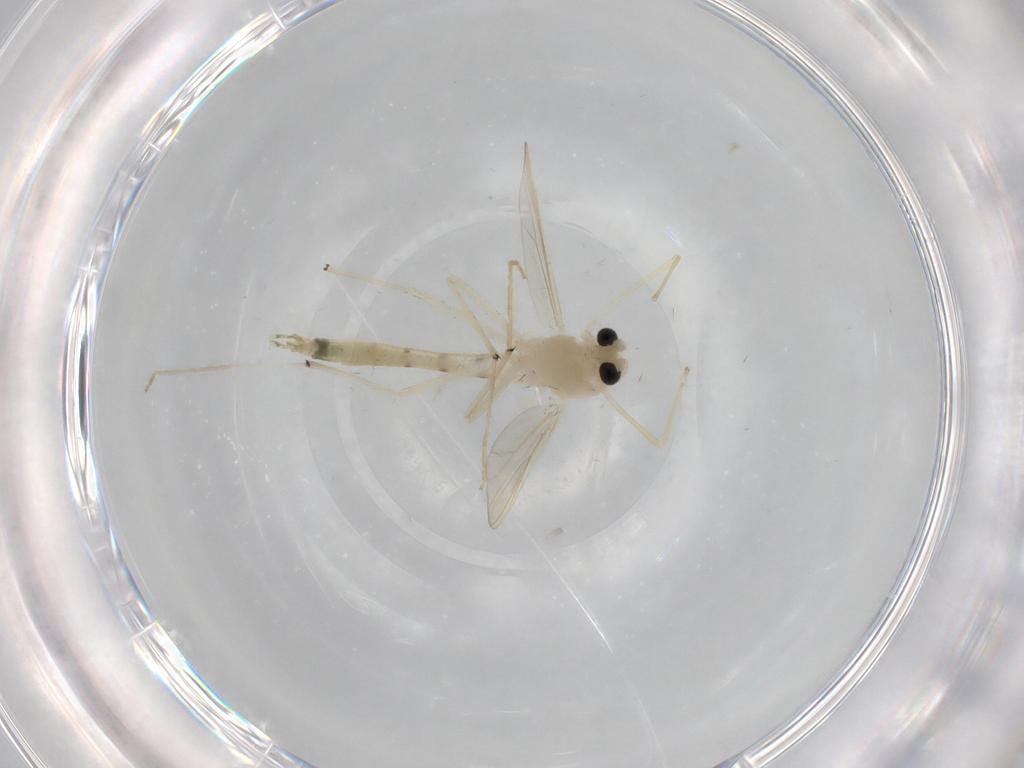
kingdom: Animalia
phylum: Arthropoda
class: Insecta
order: Diptera
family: Chironomidae
